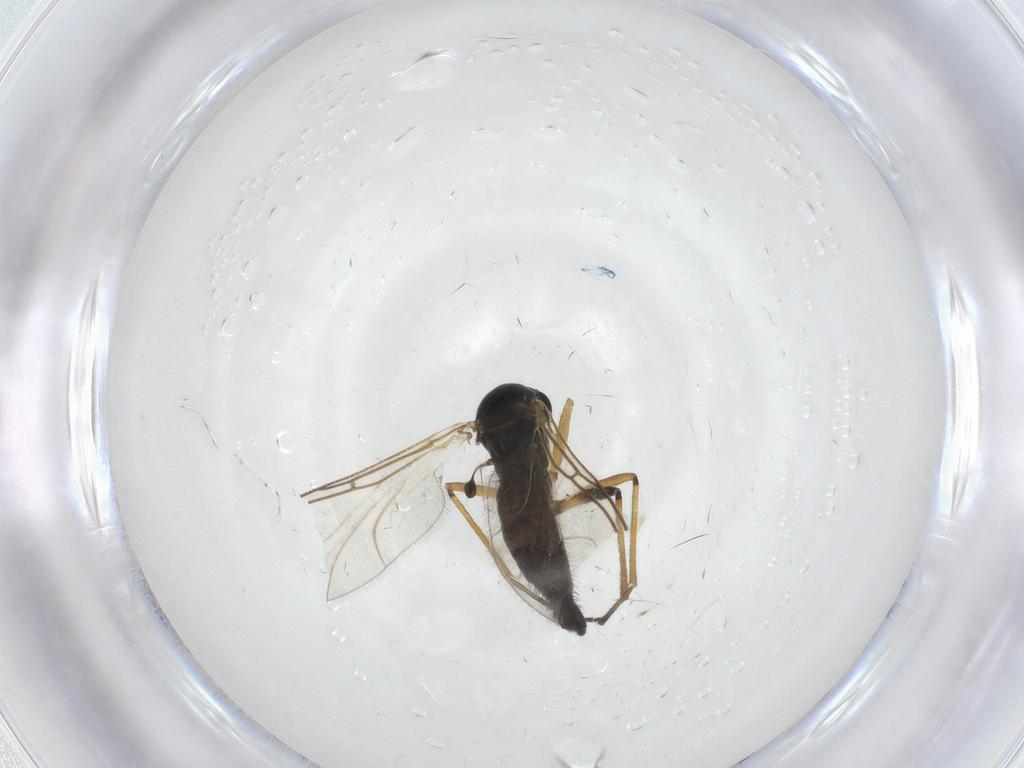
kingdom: Animalia
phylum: Arthropoda
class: Insecta
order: Diptera
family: Sciaridae
